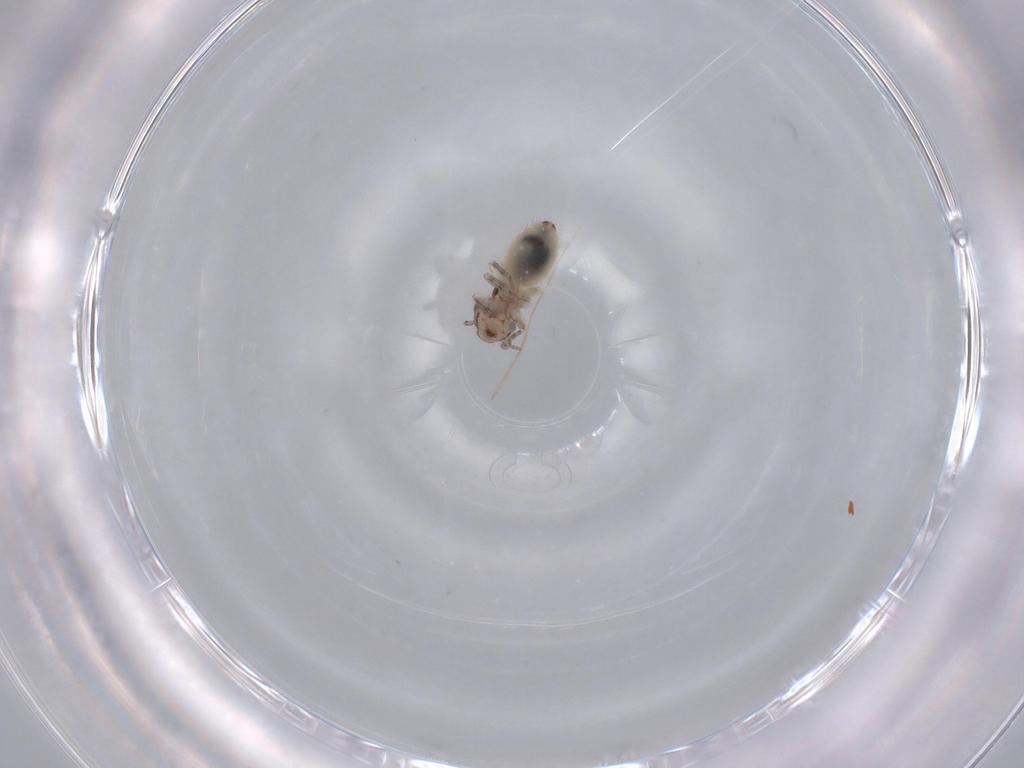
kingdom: Animalia
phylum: Arthropoda
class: Insecta
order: Psocodea
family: Lepidopsocidae
